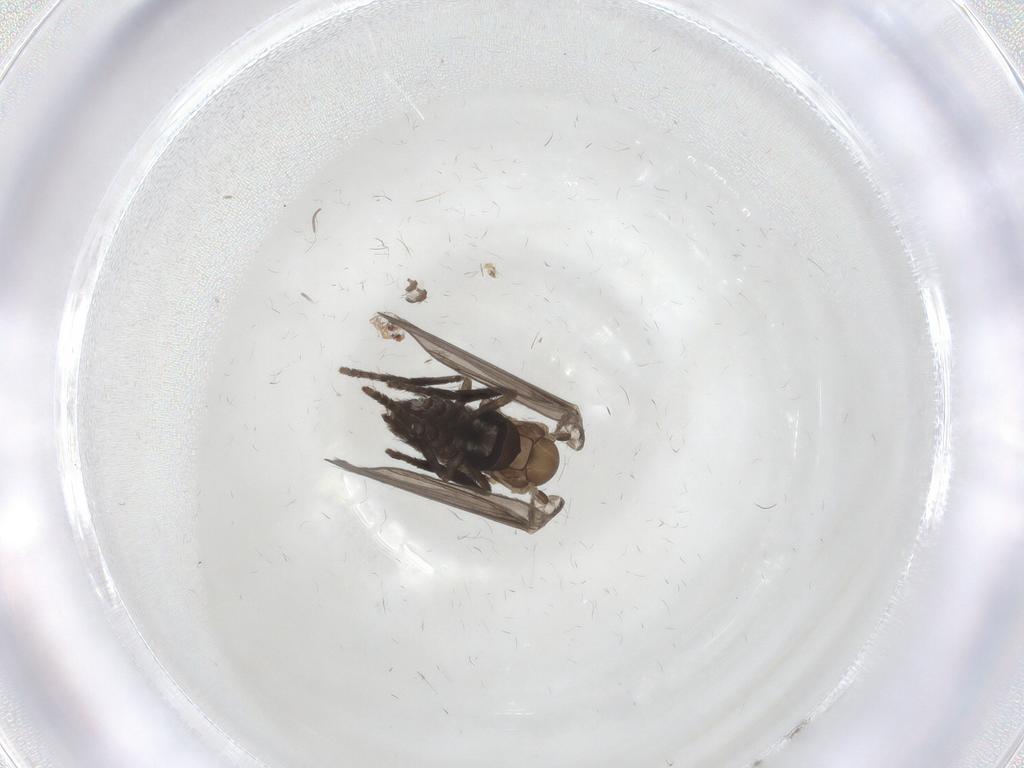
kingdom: Animalia
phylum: Arthropoda
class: Insecta
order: Diptera
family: Psychodidae
